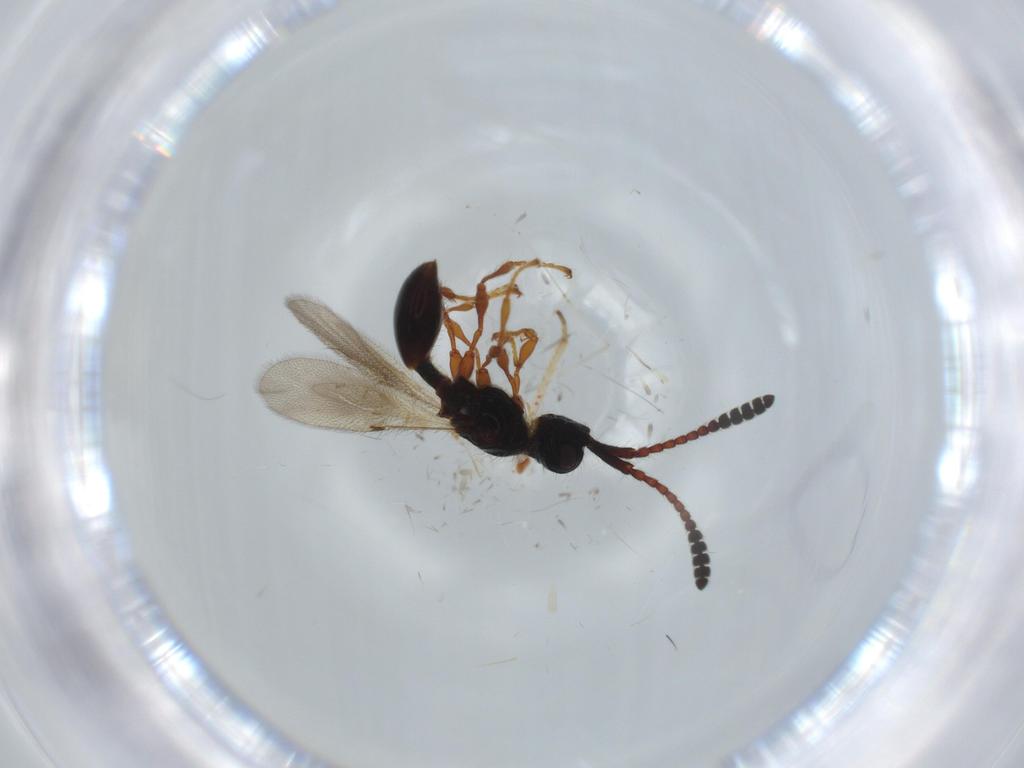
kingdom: Animalia
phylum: Arthropoda
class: Insecta
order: Hymenoptera
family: Diapriidae
